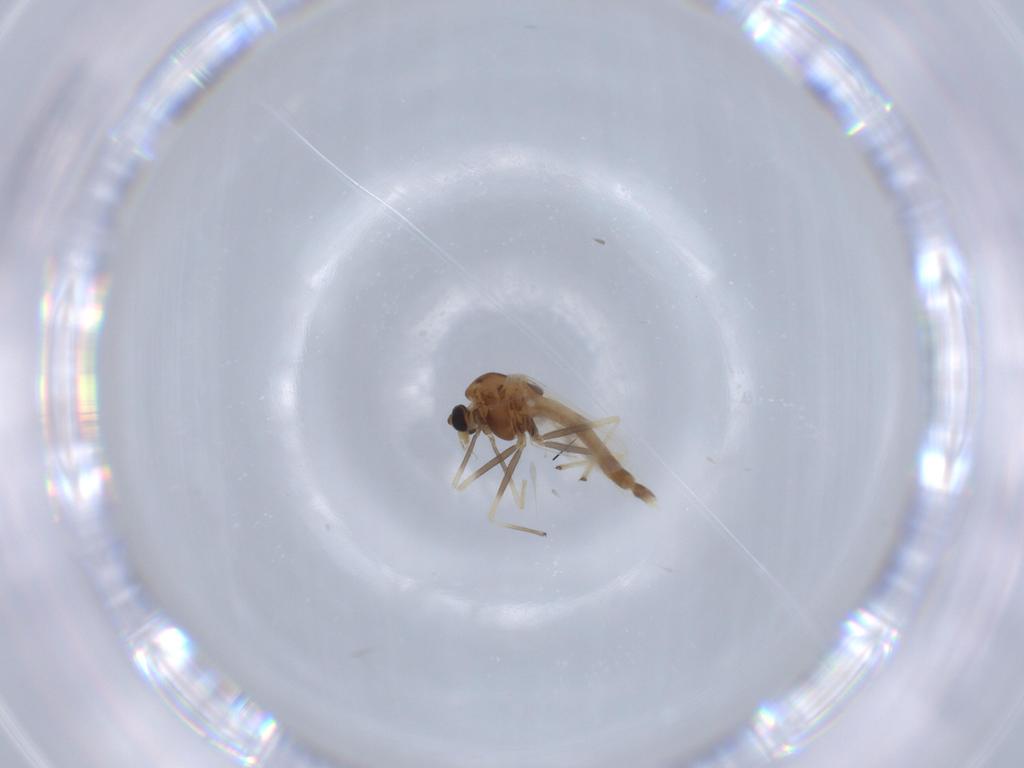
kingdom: Animalia
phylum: Arthropoda
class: Insecta
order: Diptera
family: Chironomidae
